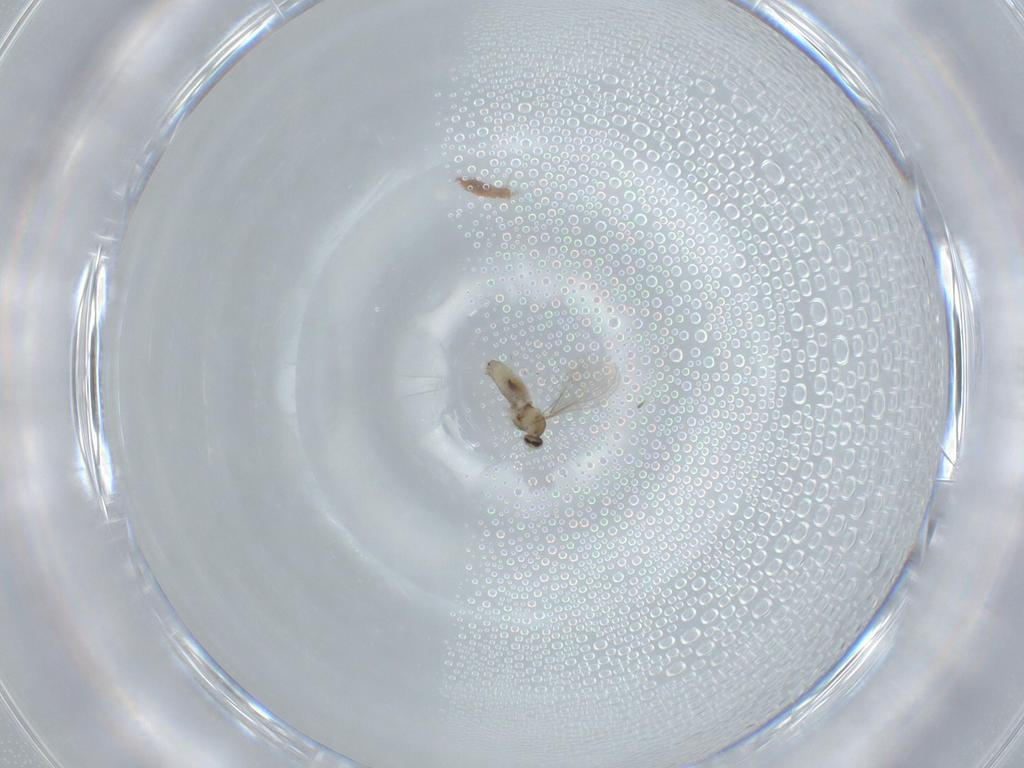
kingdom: Animalia
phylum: Arthropoda
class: Insecta
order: Diptera
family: Cecidomyiidae
